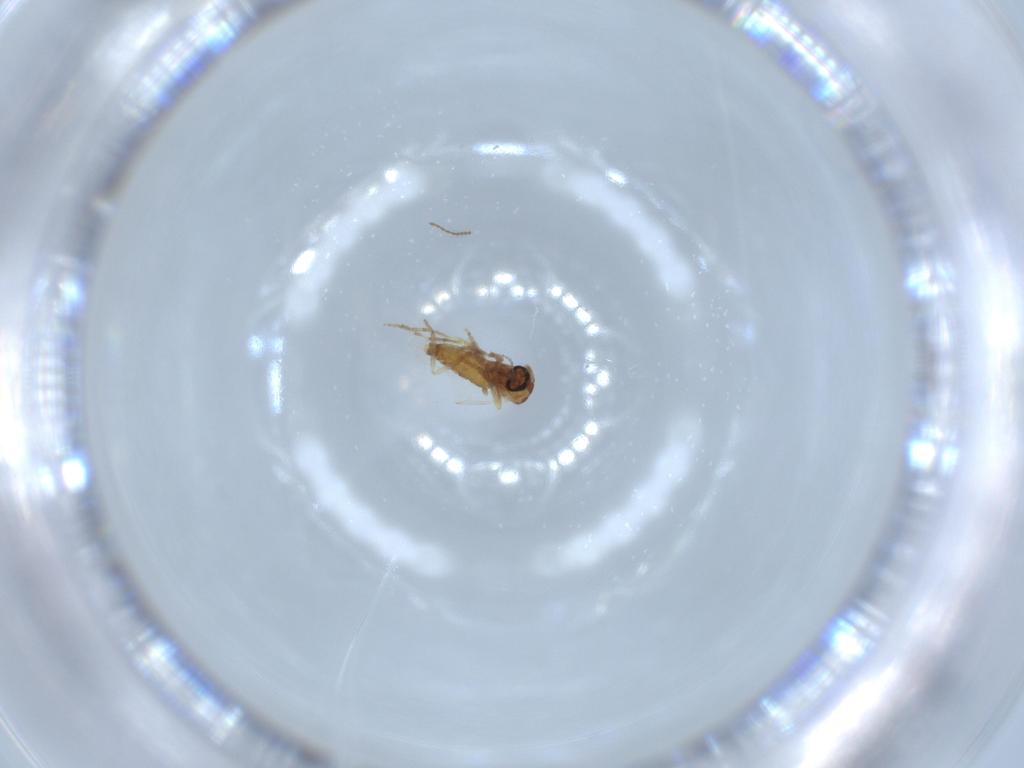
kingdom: Animalia
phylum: Arthropoda
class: Insecta
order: Diptera
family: Ceratopogonidae
